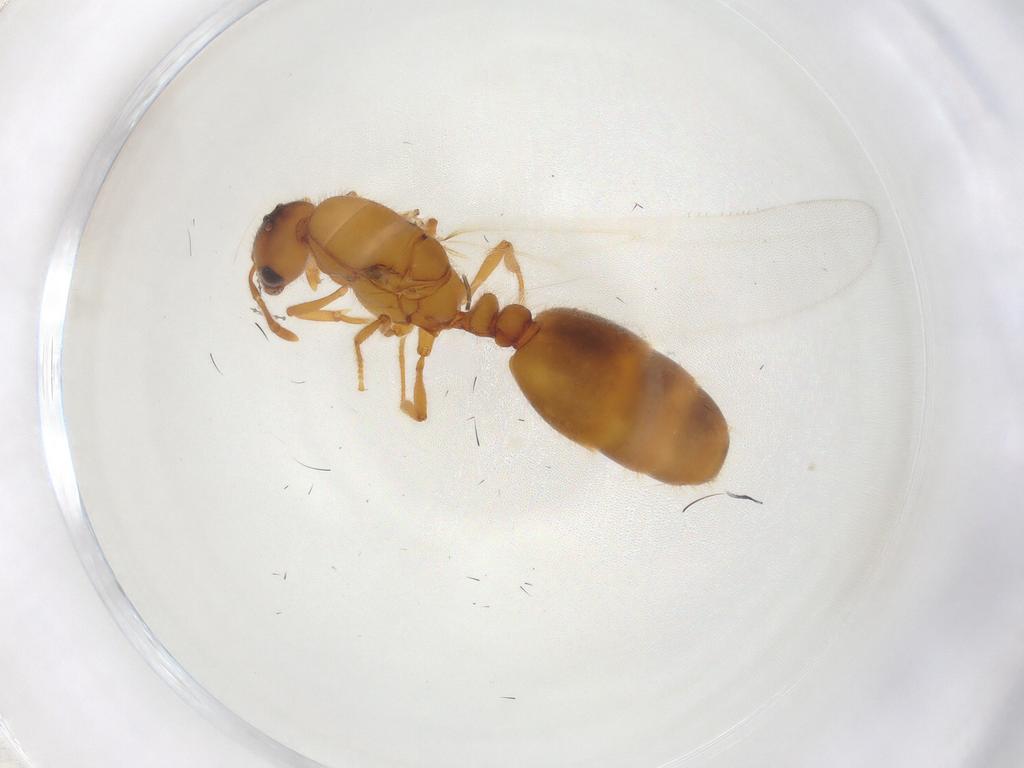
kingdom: Animalia
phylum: Arthropoda
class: Insecta
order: Hymenoptera
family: Formicidae
